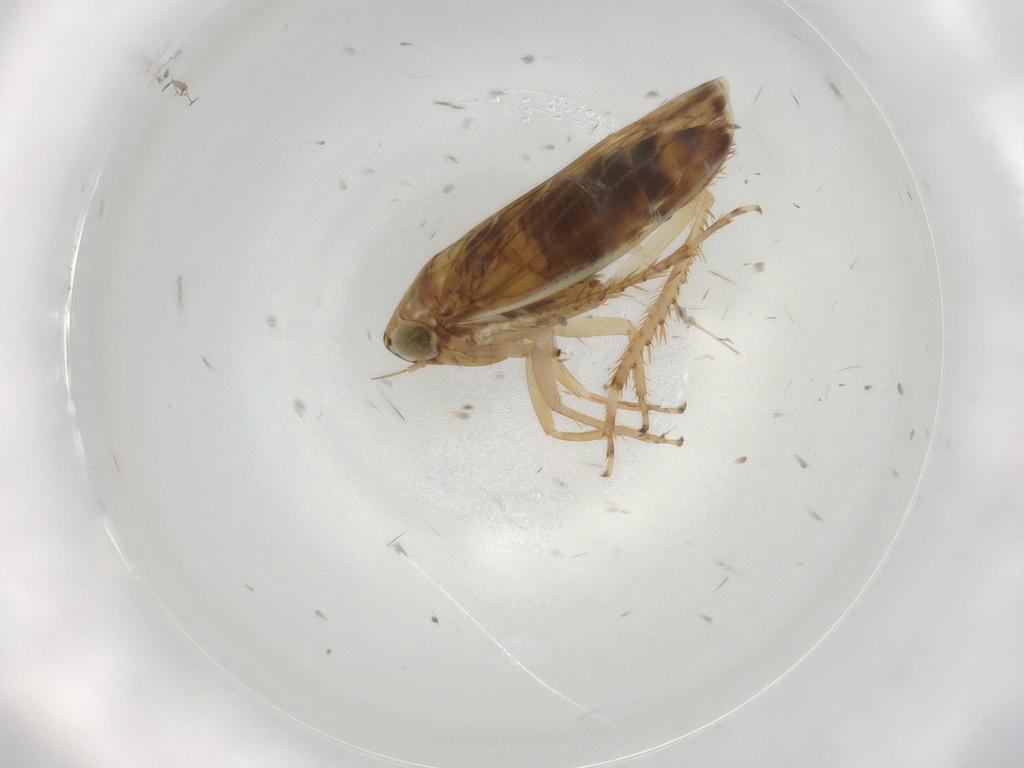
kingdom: Animalia
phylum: Arthropoda
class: Insecta
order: Hemiptera
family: Cicadellidae
